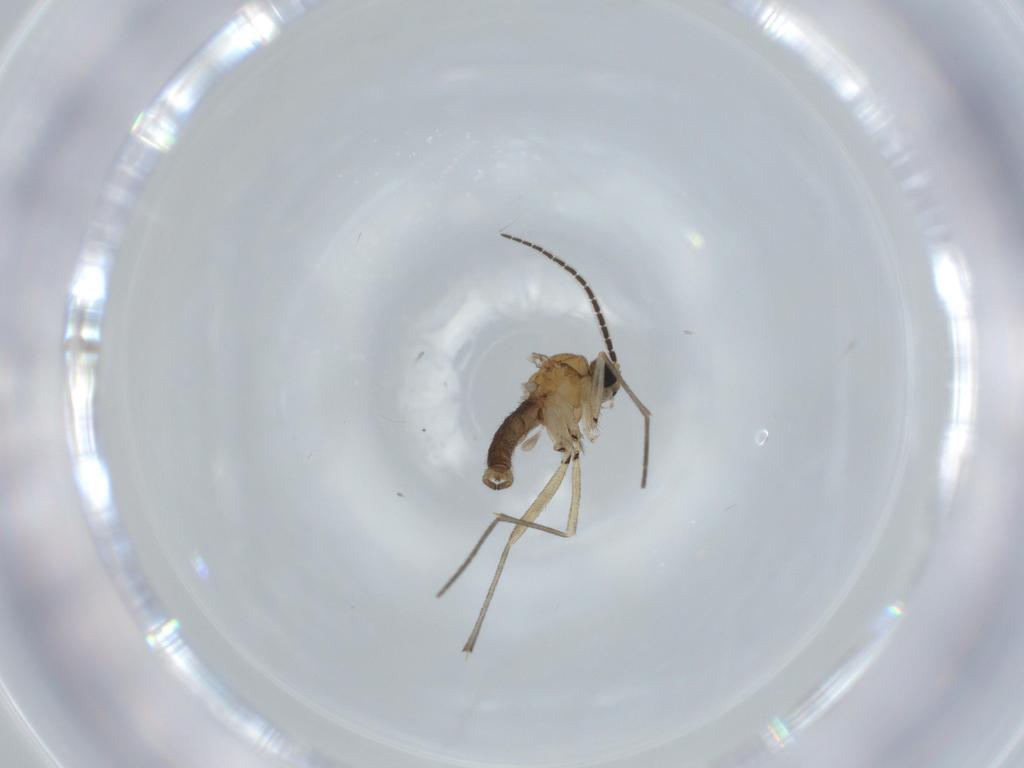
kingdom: Animalia
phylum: Arthropoda
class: Insecta
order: Diptera
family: Sciaridae
